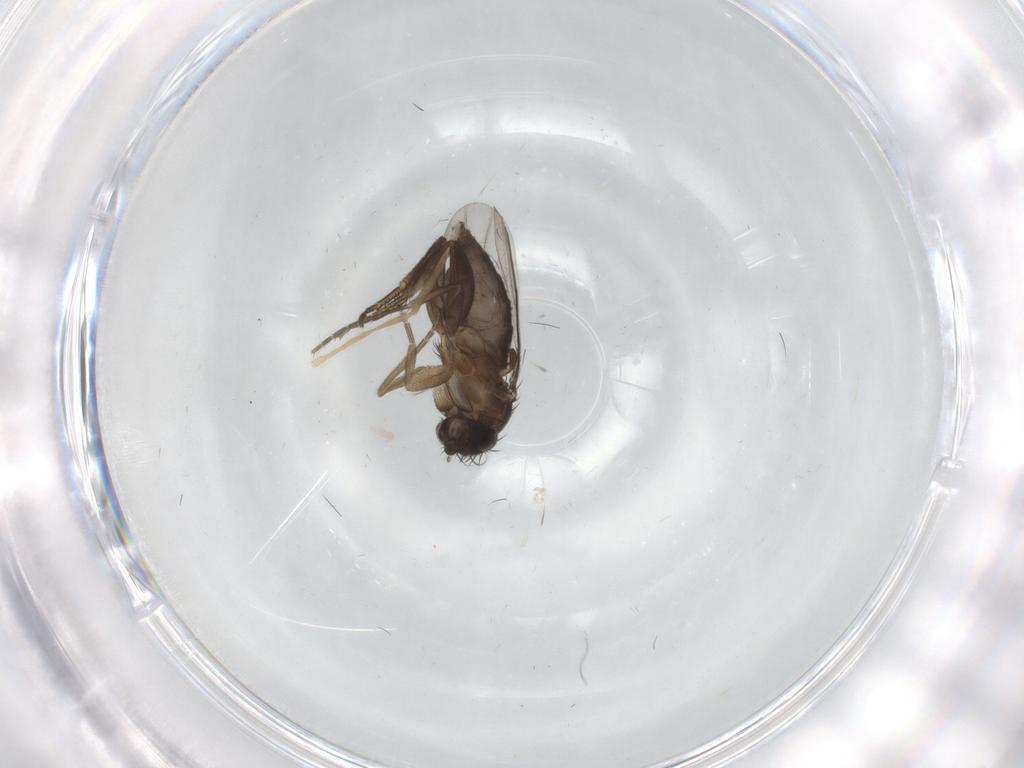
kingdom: Animalia
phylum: Arthropoda
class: Insecta
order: Diptera
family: Phoridae
